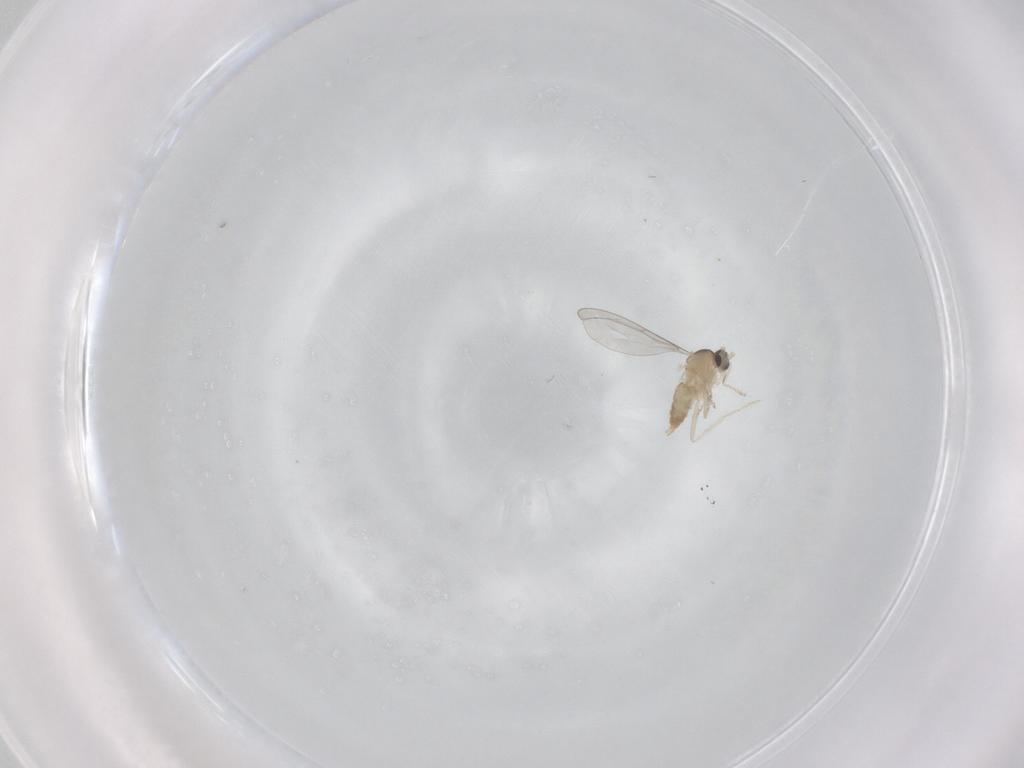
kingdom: Animalia
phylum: Arthropoda
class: Insecta
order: Diptera
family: Cecidomyiidae
